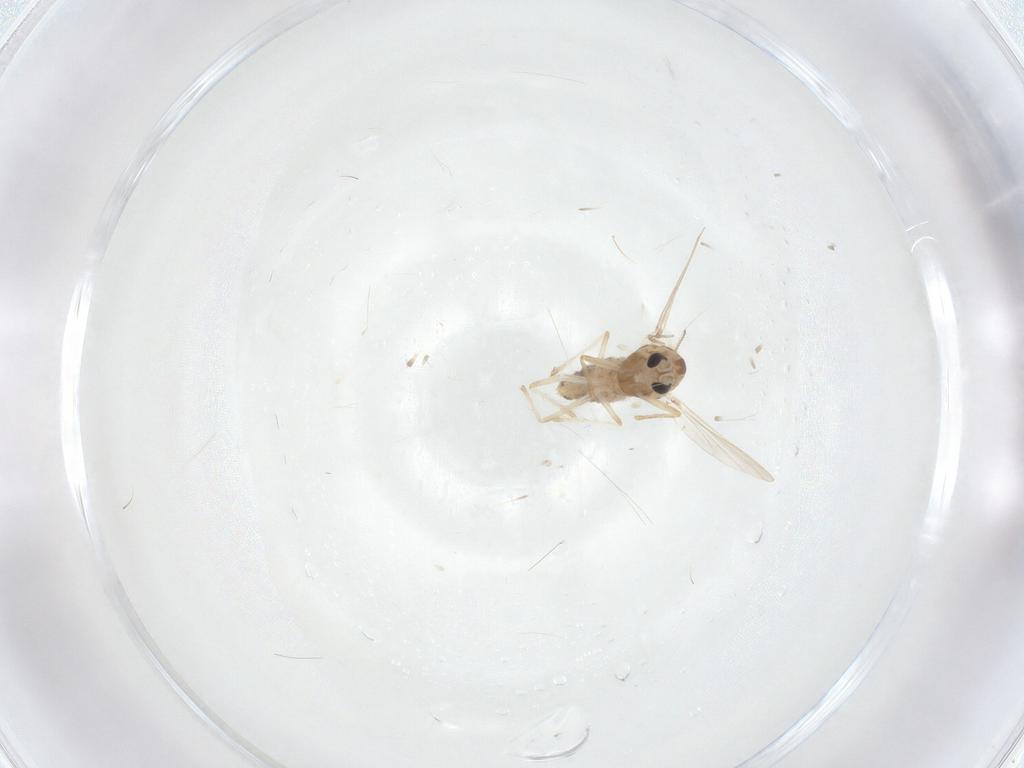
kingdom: Animalia
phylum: Arthropoda
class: Insecta
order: Diptera
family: Chironomidae
